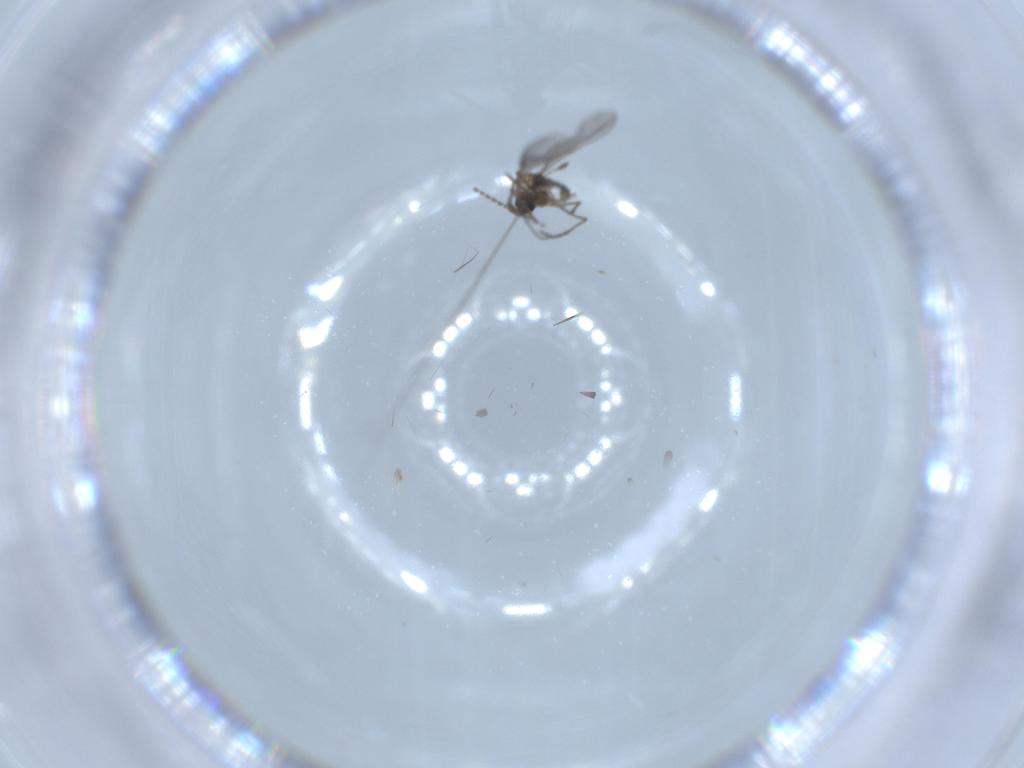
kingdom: Animalia
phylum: Arthropoda
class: Insecta
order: Diptera
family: Sciaridae
